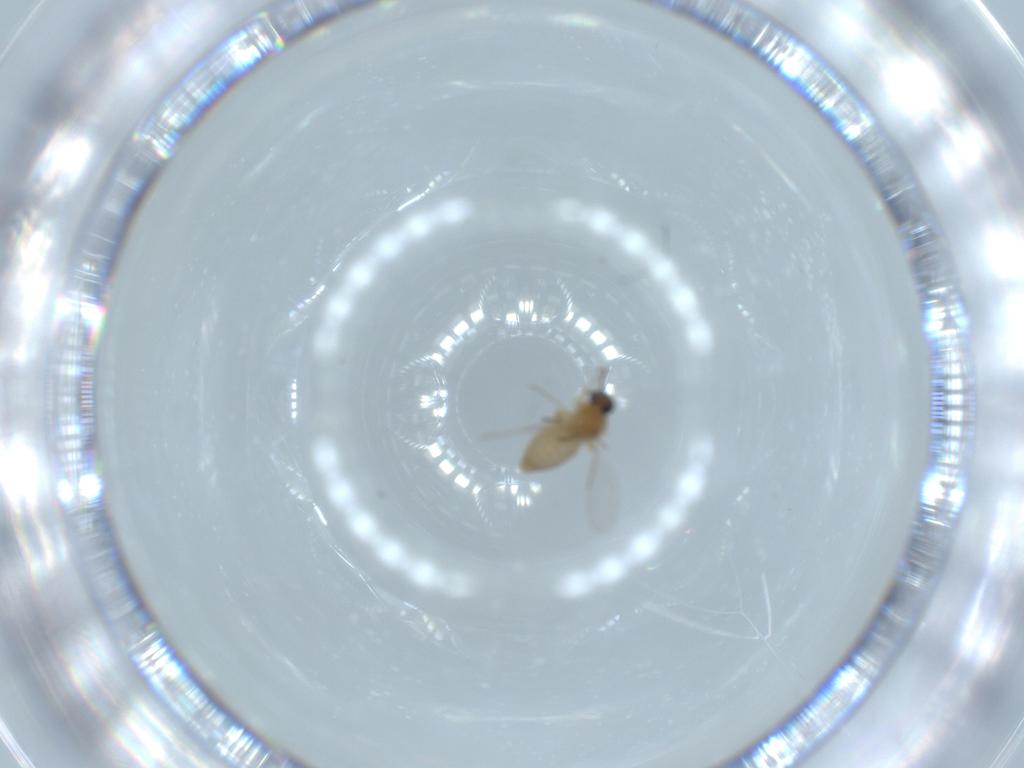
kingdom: Animalia
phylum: Arthropoda
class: Insecta
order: Diptera
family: Ceratopogonidae
